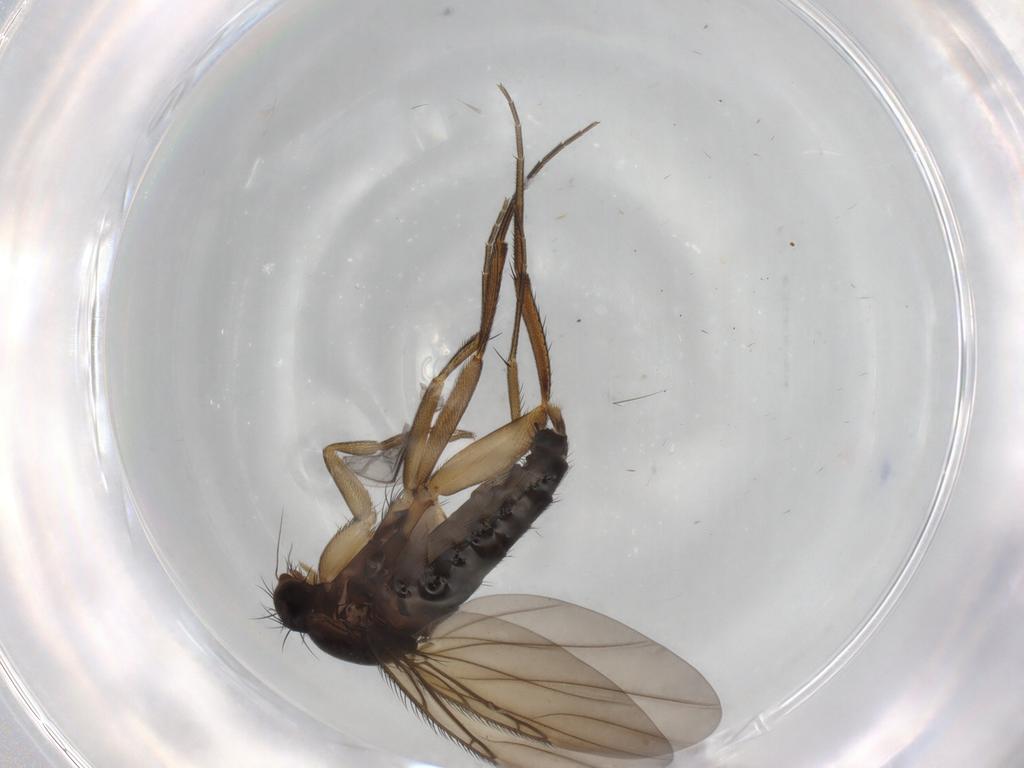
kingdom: Animalia
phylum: Arthropoda
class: Insecta
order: Diptera
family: Phoridae
